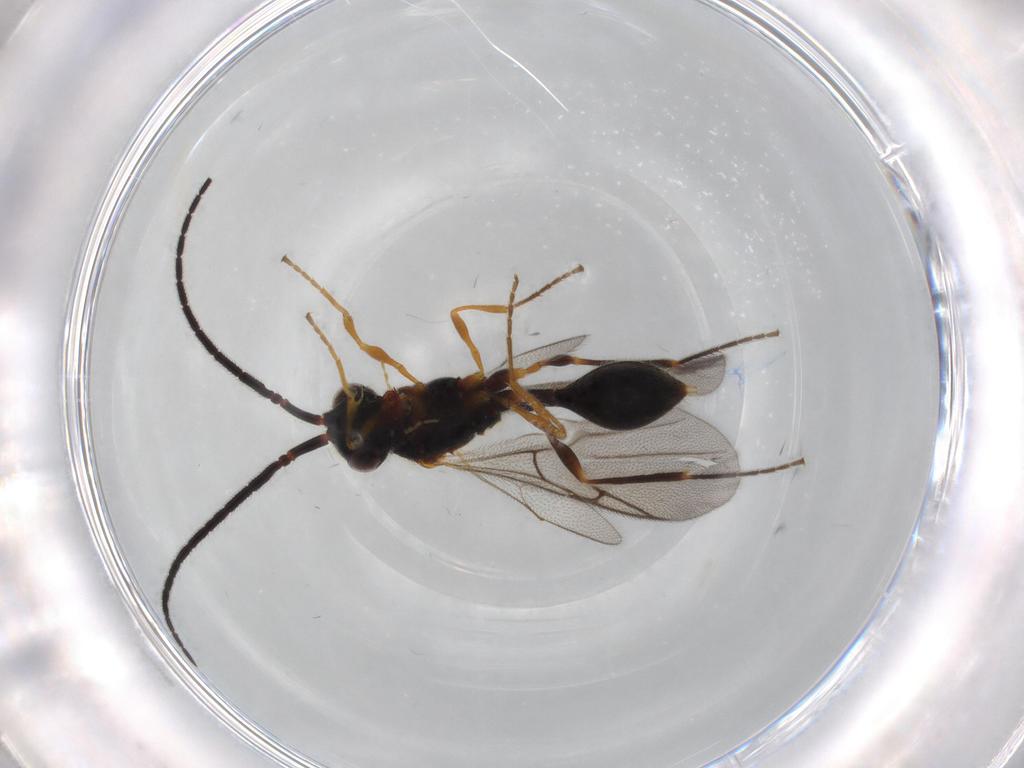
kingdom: Animalia
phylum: Arthropoda
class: Insecta
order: Hymenoptera
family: Diapriidae
